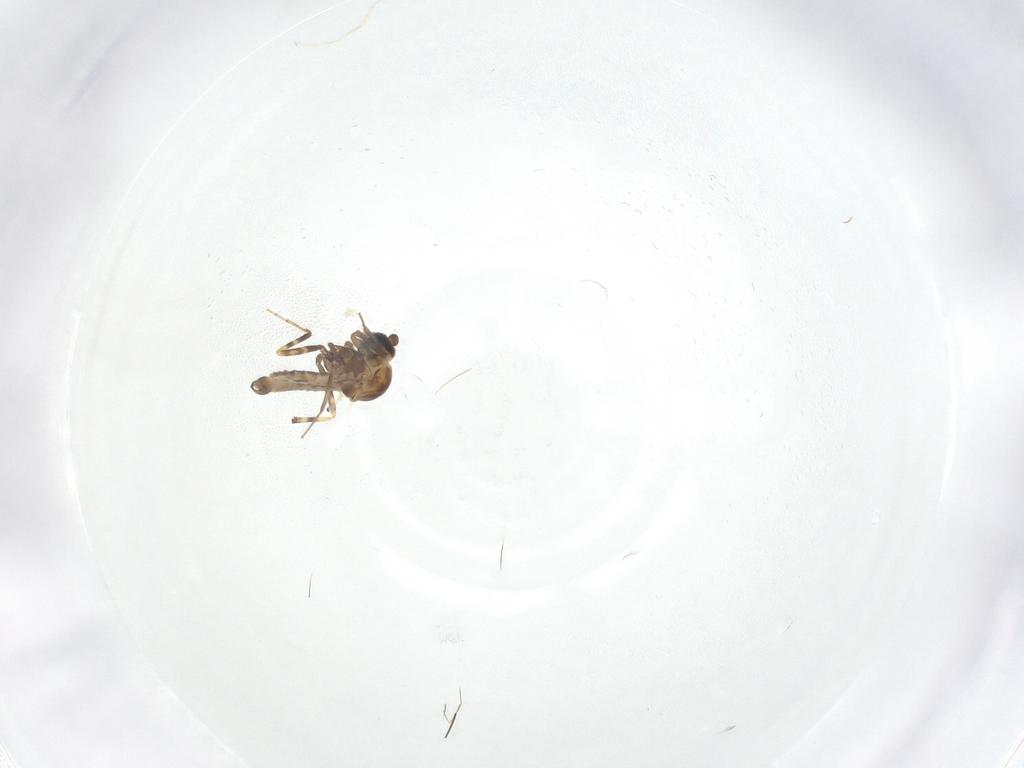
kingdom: Animalia
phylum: Arthropoda
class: Insecta
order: Diptera
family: Ceratopogonidae
